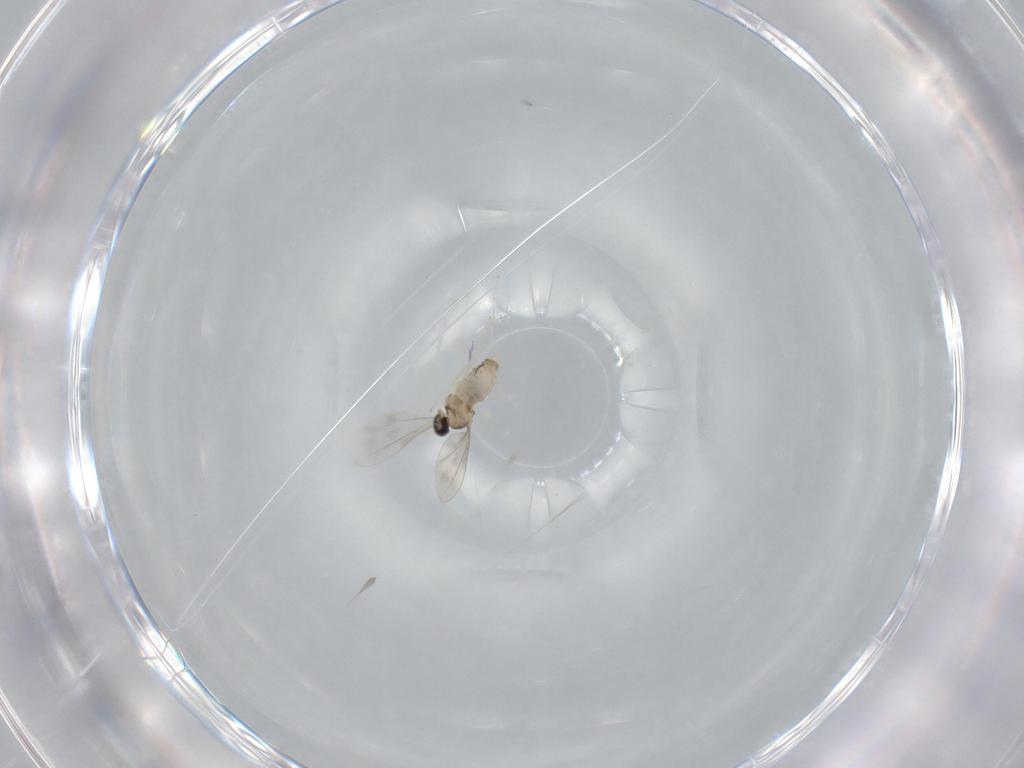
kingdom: Animalia
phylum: Arthropoda
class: Insecta
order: Diptera
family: Cecidomyiidae
